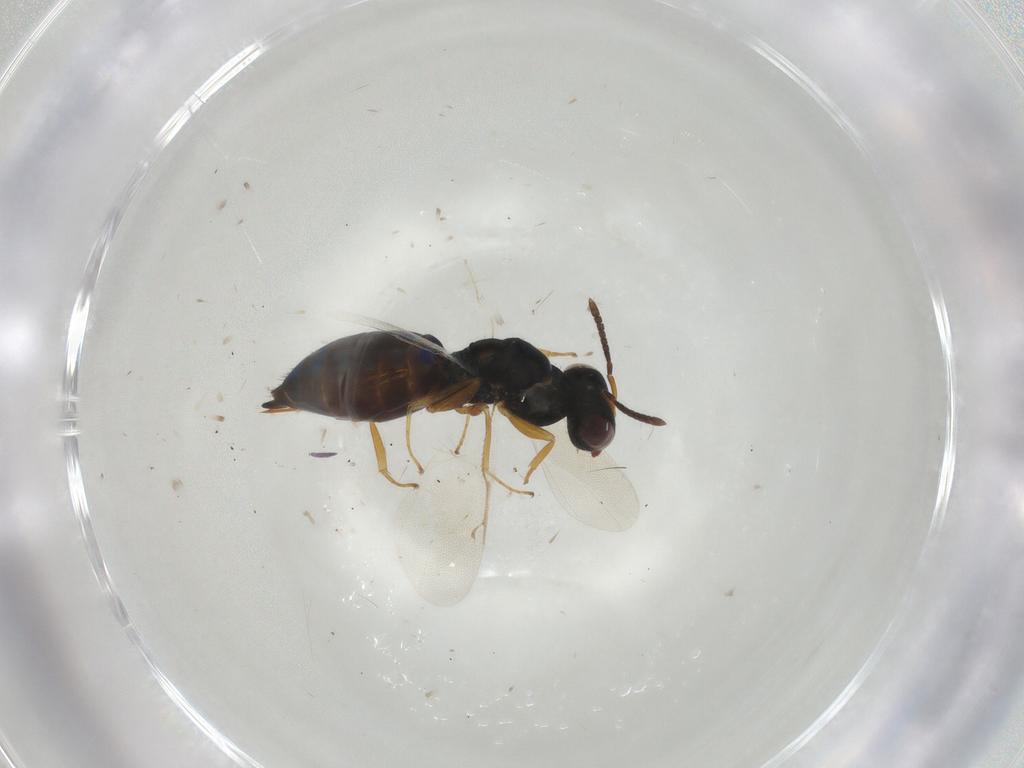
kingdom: Animalia
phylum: Arthropoda
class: Insecta
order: Hymenoptera
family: Pteromalidae
